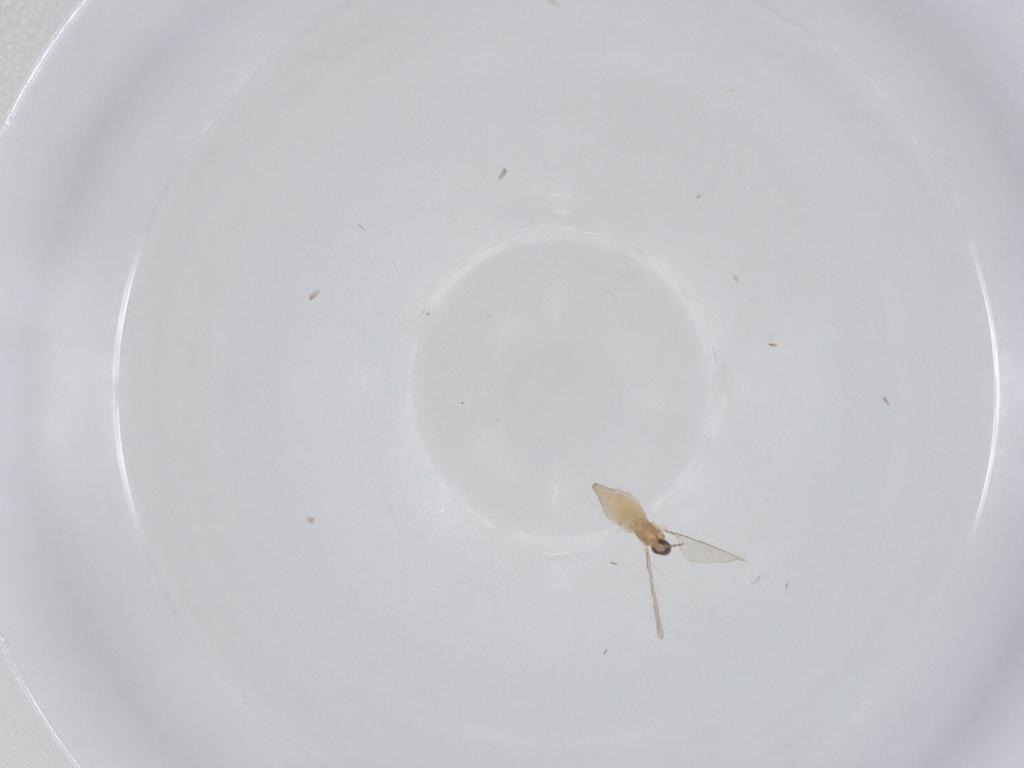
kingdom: Animalia
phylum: Arthropoda
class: Insecta
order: Diptera
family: Ceratopogonidae
